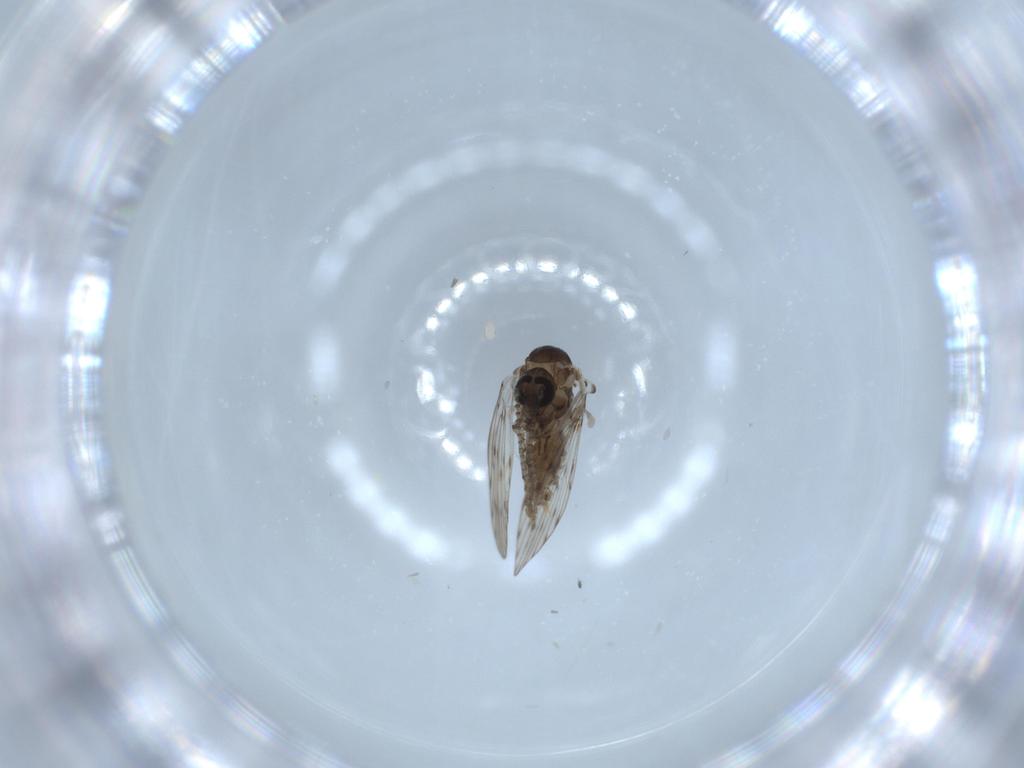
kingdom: Animalia
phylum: Arthropoda
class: Insecta
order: Diptera
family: Psychodidae
